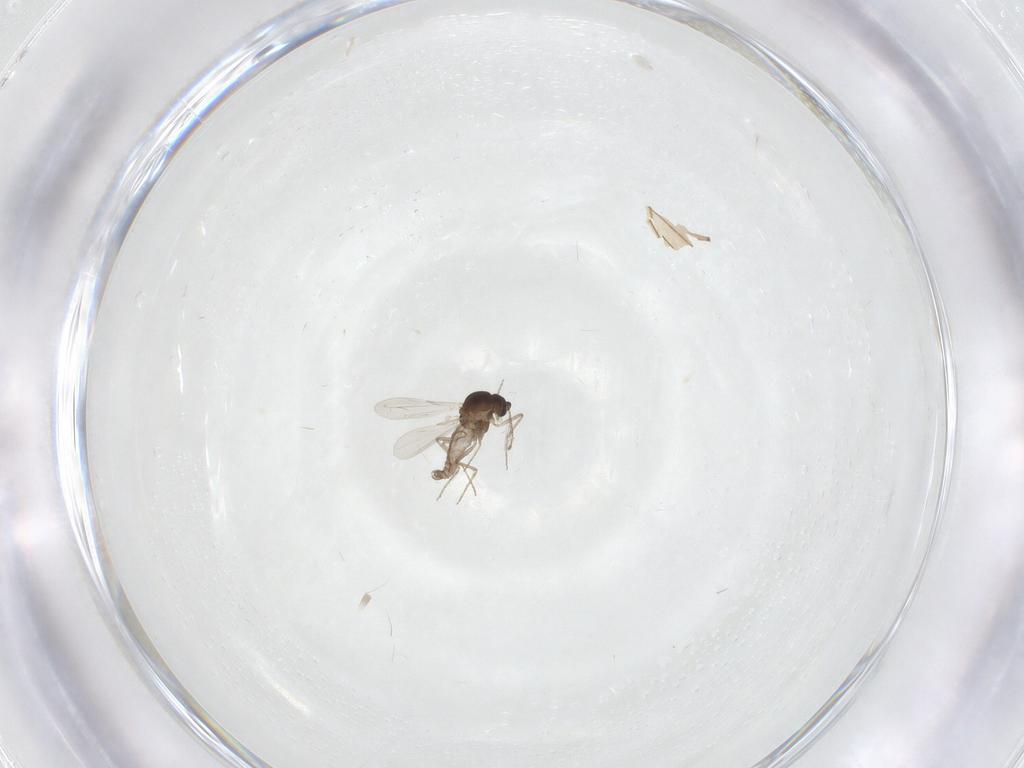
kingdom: Animalia
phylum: Arthropoda
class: Insecta
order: Diptera
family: Ceratopogonidae
